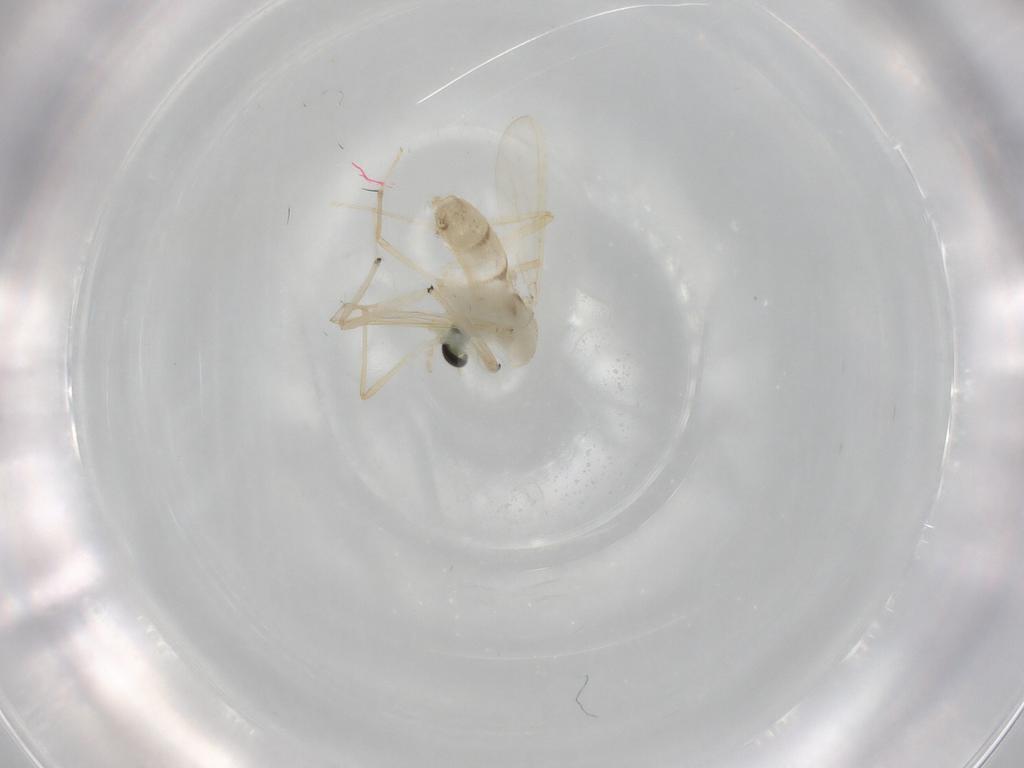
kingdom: Animalia
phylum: Arthropoda
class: Insecta
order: Diptera
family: Chironomidae
